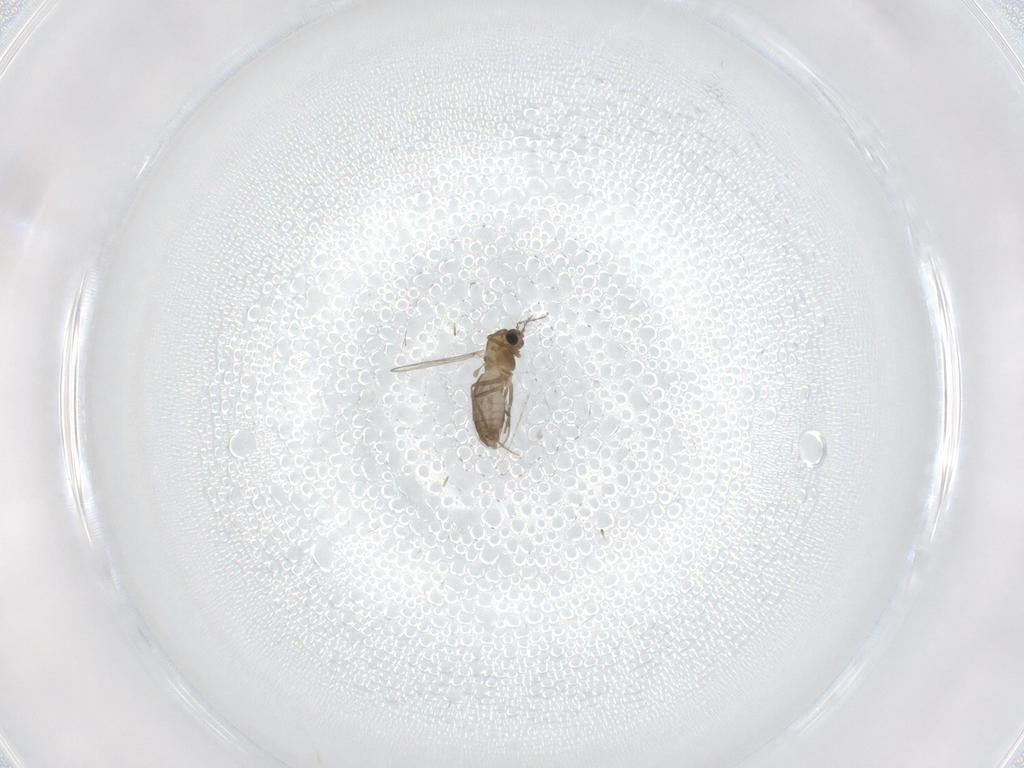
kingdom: Animalia
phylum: Arthropoda
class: Insecta
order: Diptera
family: Chironomidae
